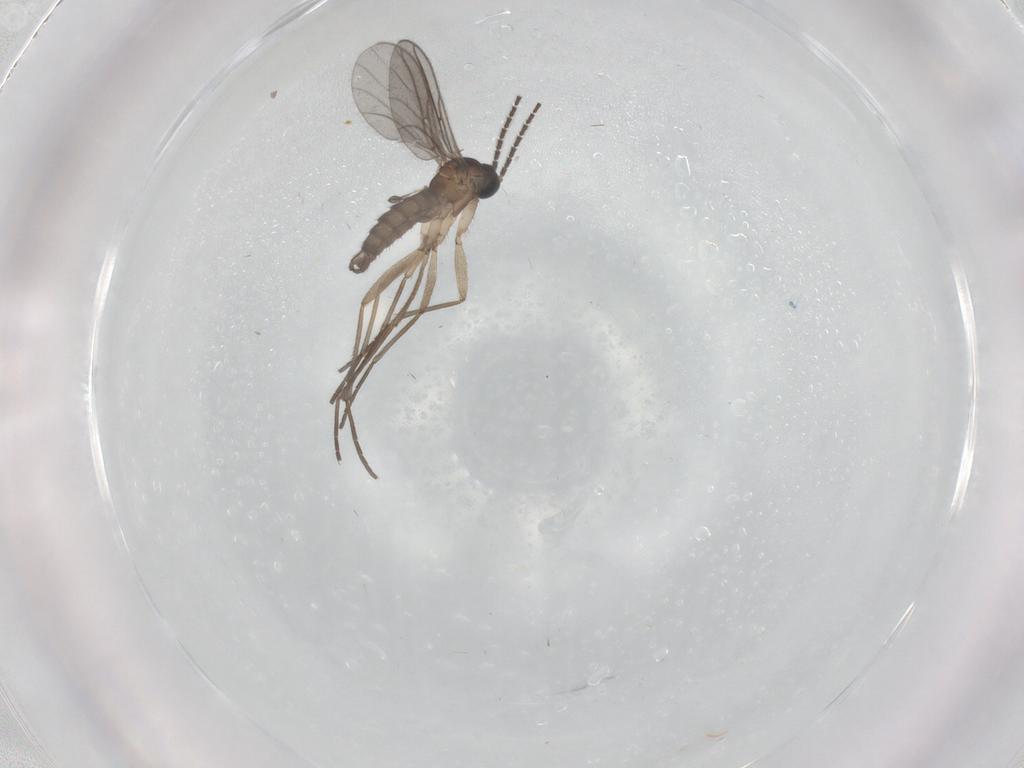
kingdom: Animalia
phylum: Arthropoda
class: Insecta
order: Diptera
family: Sciaridae
